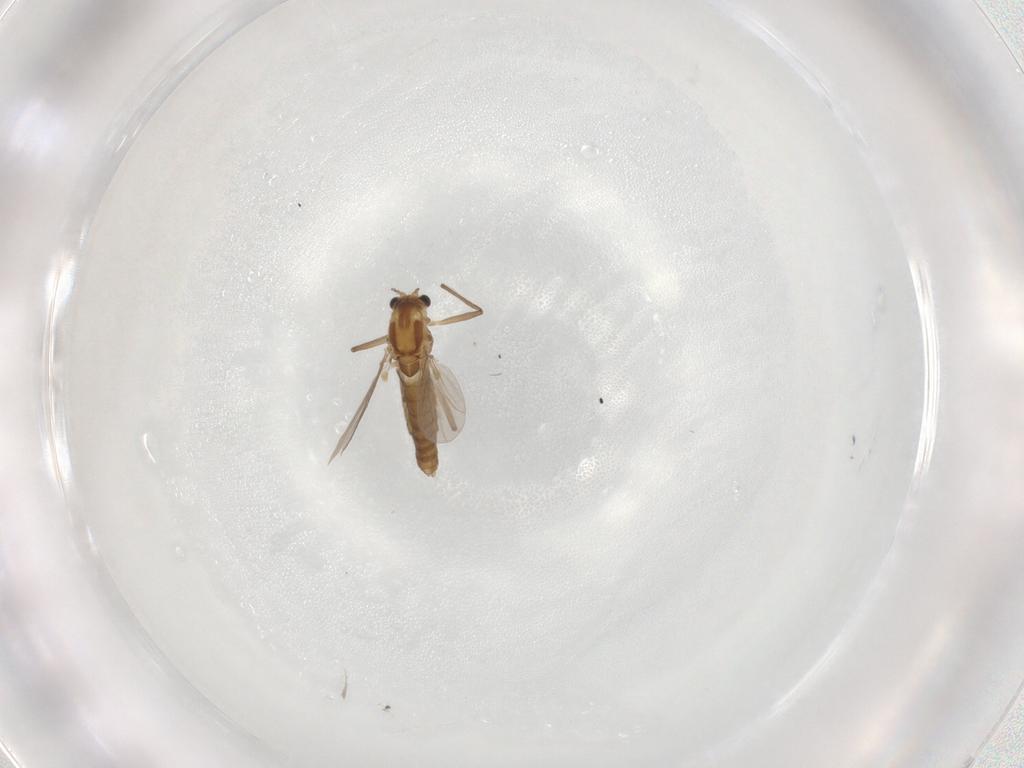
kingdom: Animalia
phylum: Arthropoda
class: Insecta
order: Diptera
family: Chironomidae
